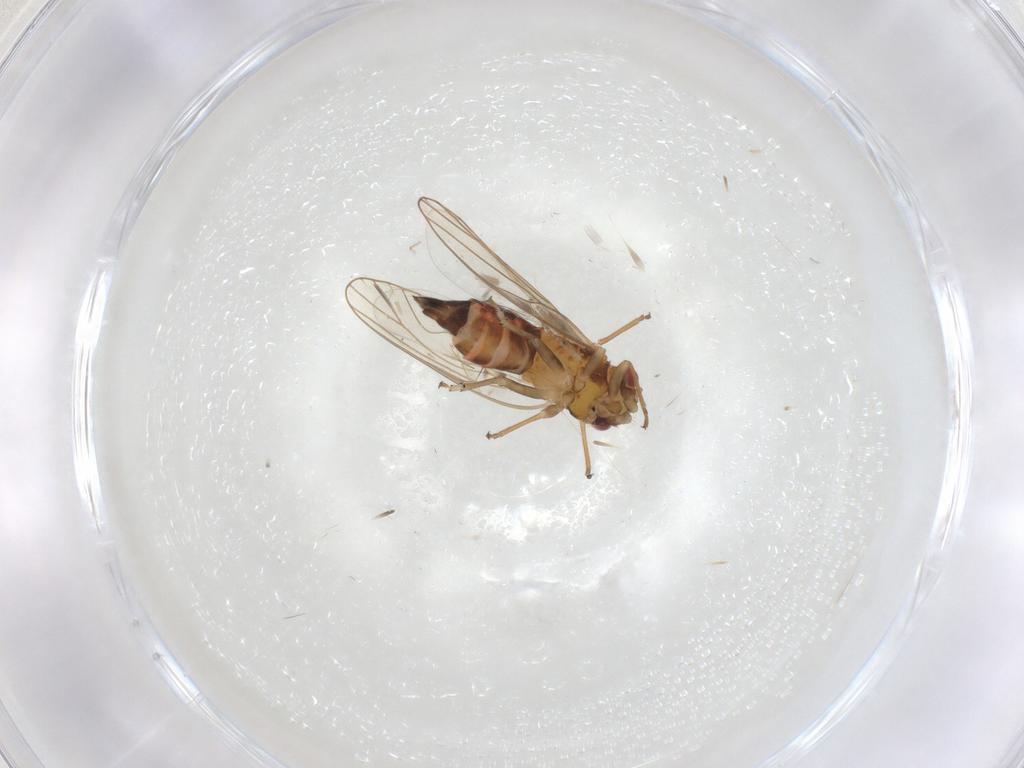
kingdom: Animalia
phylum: Arthropoda
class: Insecta
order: Hemiptera
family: Psyllidae
